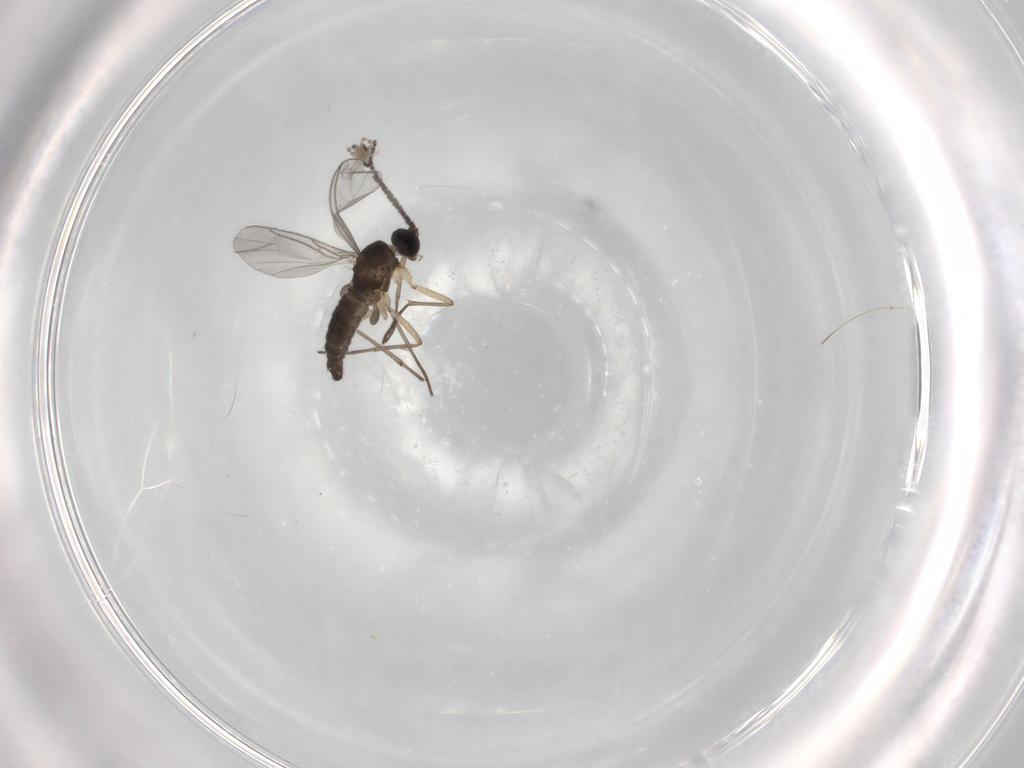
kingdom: Animalia
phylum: Arthropoda
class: Insecta
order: Diptera
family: Sciaridae
